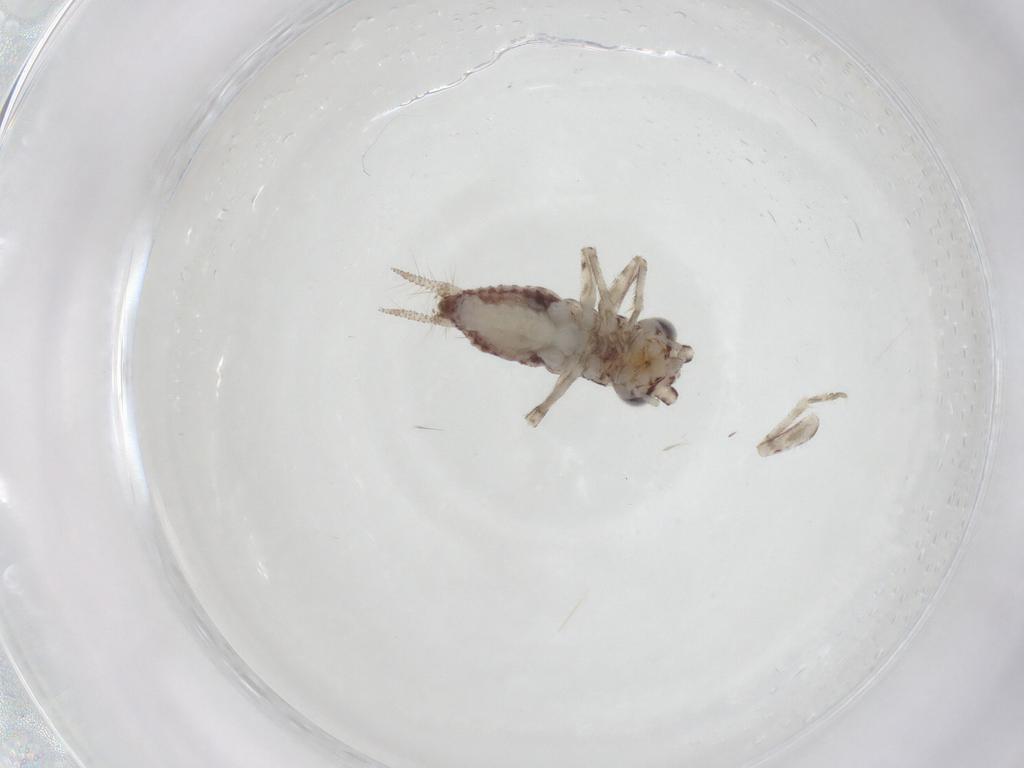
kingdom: Animalia
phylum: Arthropoda
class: Insecta
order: Orthoptera
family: Trigonidiidae
